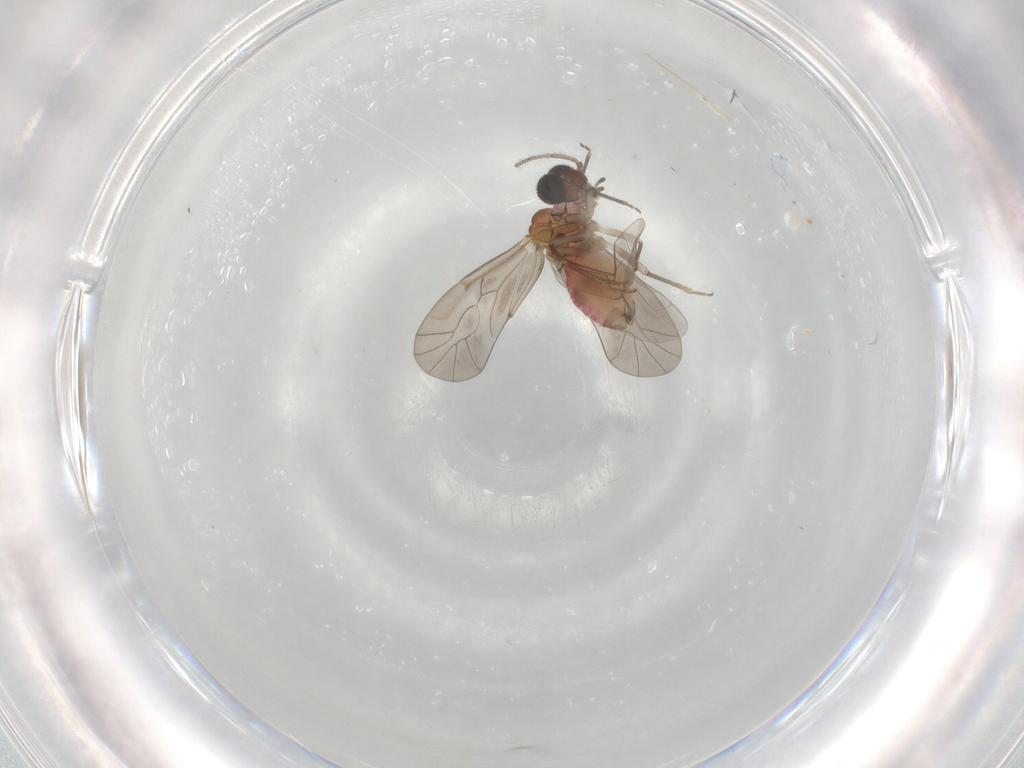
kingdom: Animalia
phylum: Arthropoda
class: Insecta
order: Psocodea
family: Lachesillidae
